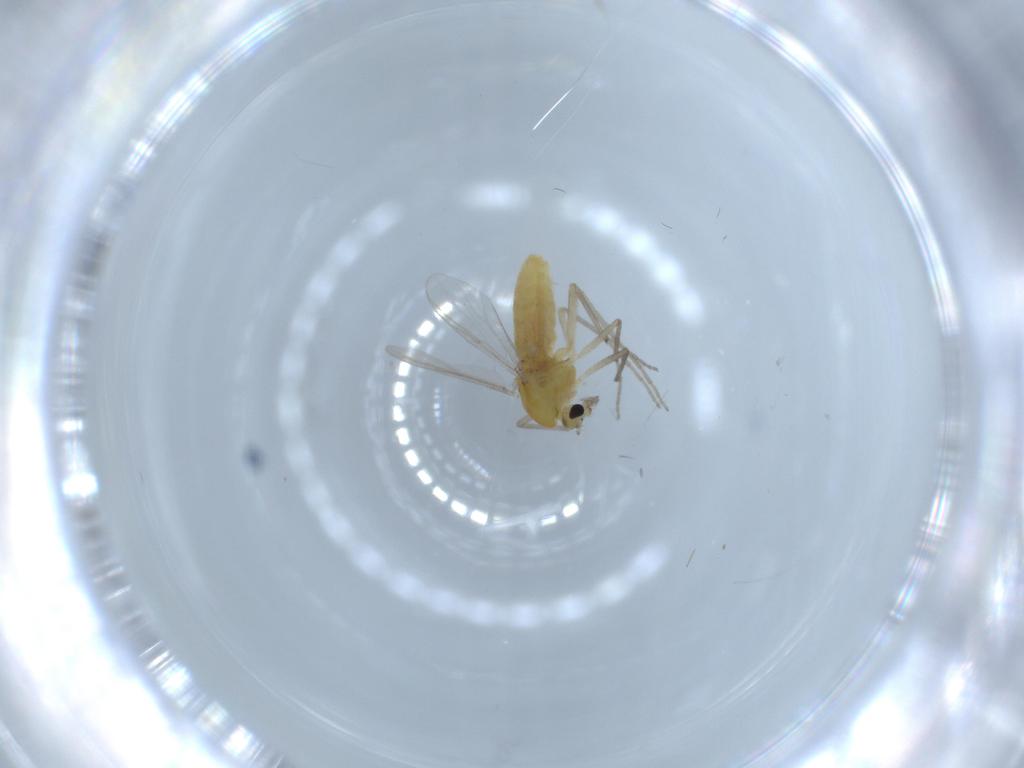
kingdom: Animalia
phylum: Arthropoda
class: Insecta
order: Diptera
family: Chironomidae
